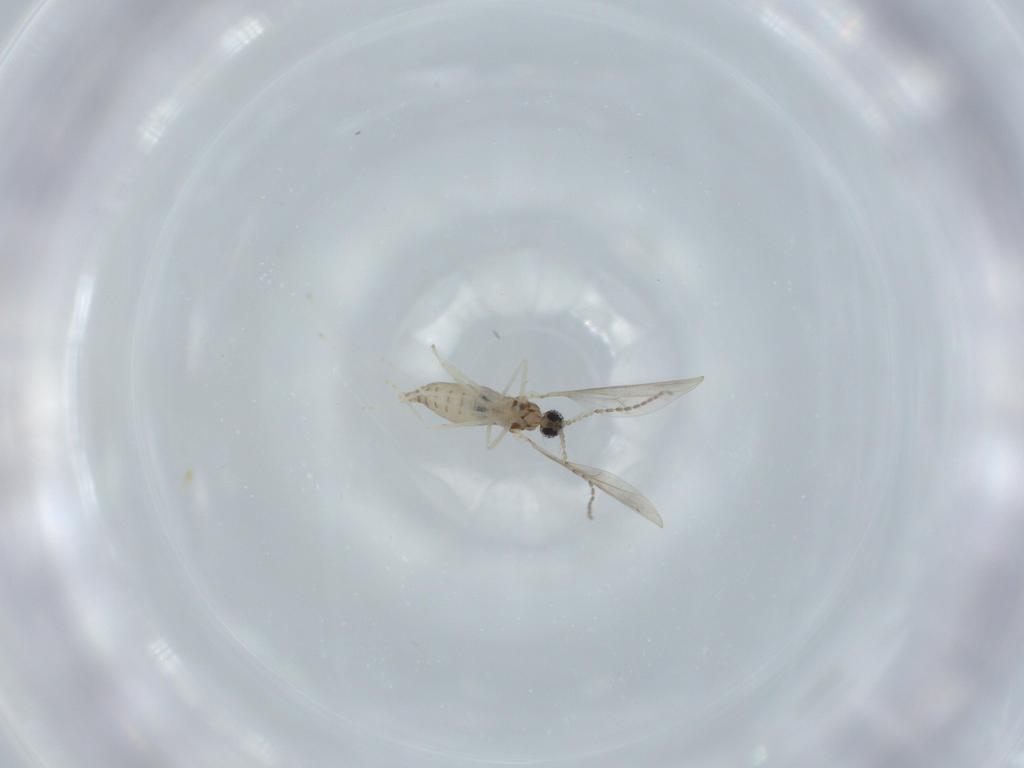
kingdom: Animalia
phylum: Arthropoda
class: Insecta
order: Diptera
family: Cecidomyiidae
